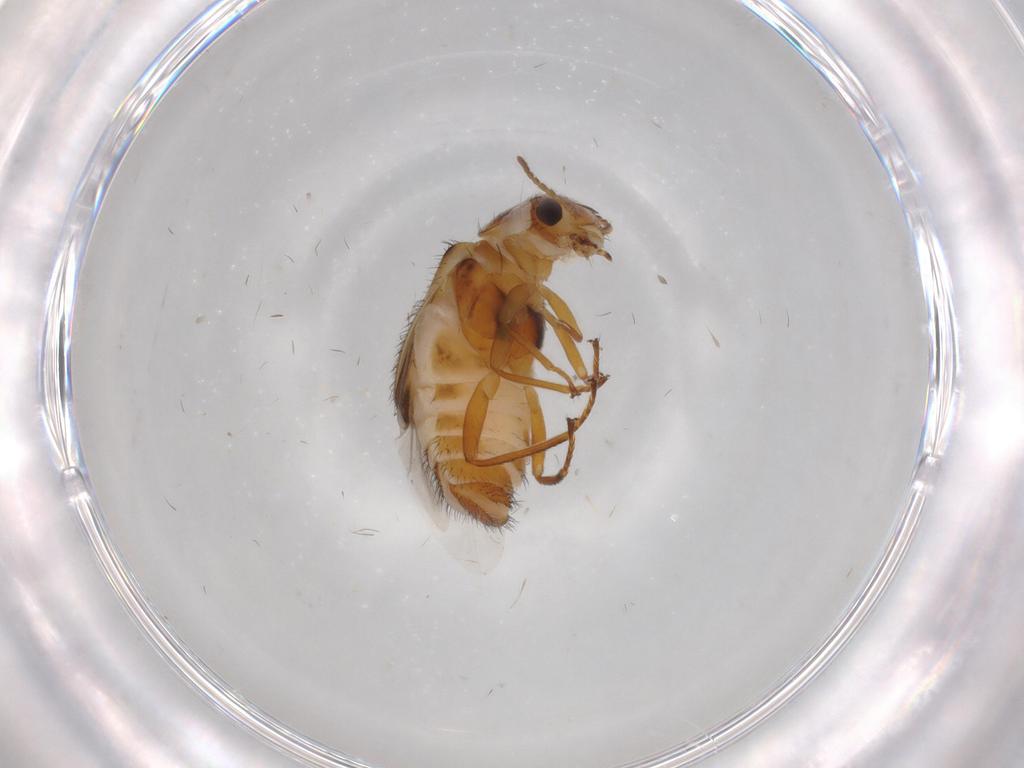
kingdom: Animalia
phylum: Arthropoda
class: Insecta
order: Coleoptera
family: Melyridae
